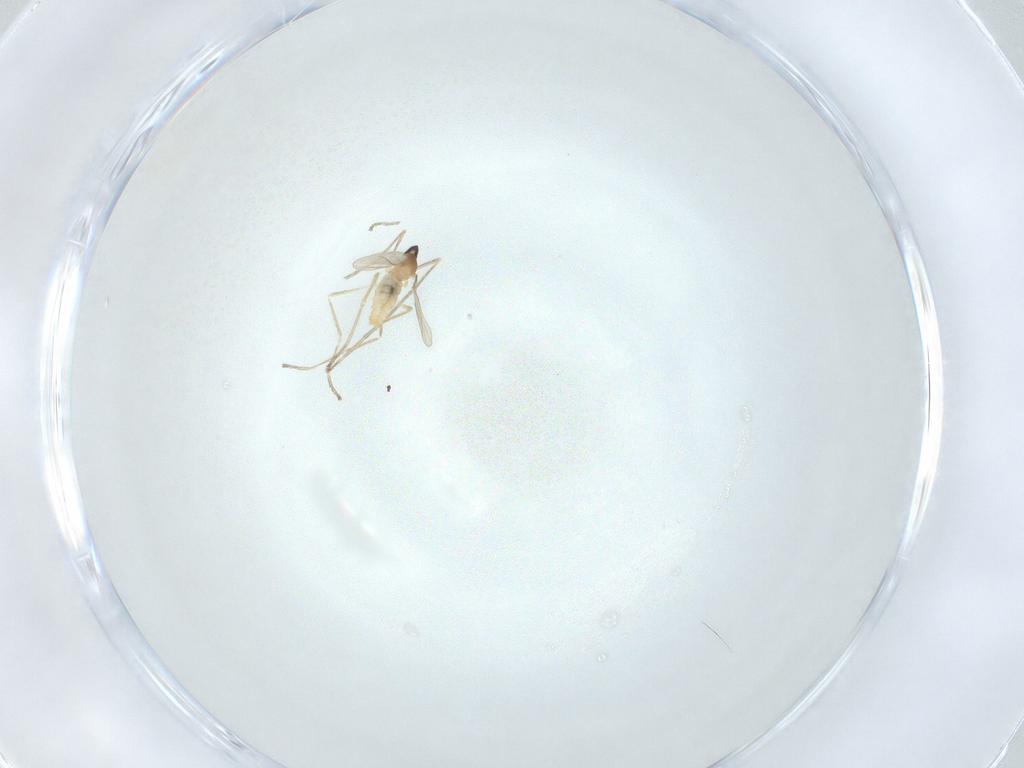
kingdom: Animalia
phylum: Arthropoda
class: Insecta
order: Diptera
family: Cecidomyiidae
